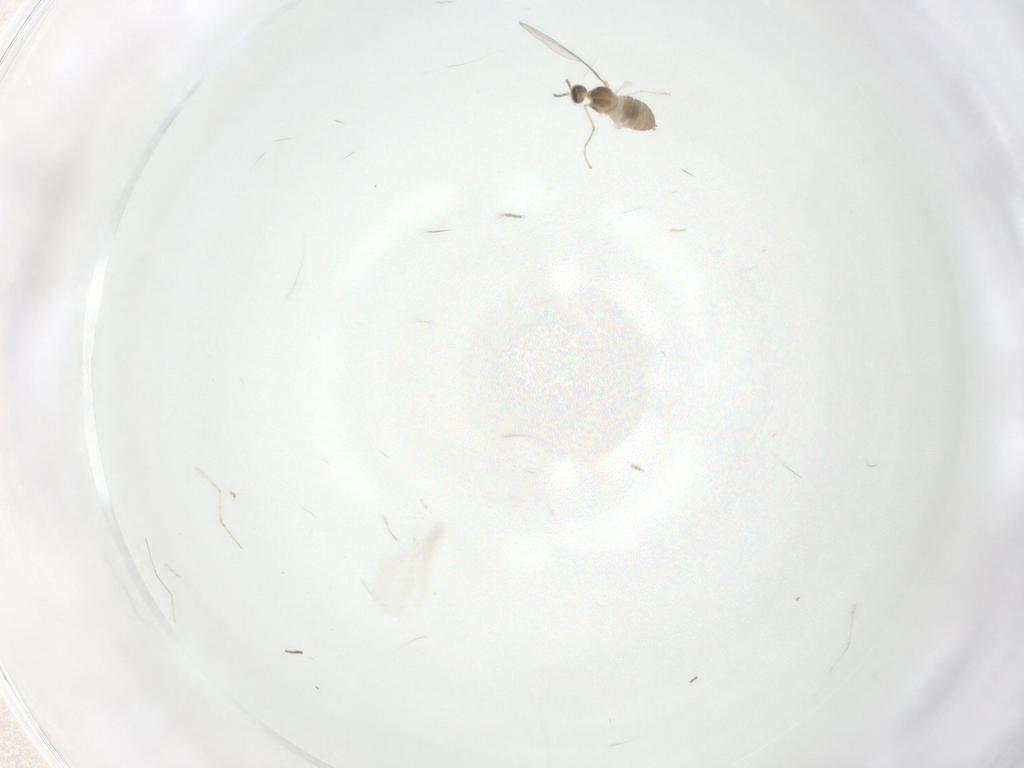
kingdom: Animalia
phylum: Arthropoda
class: Insecta
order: Diptera
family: Cecidomyiidae
